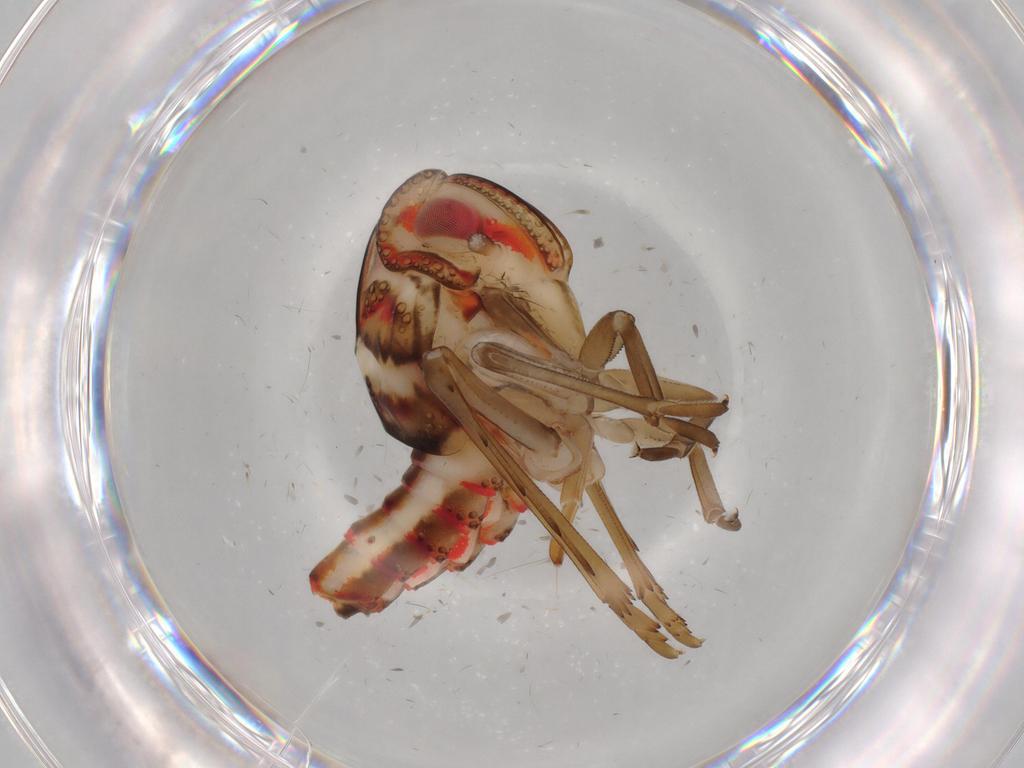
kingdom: Animalia
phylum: Arthropoda
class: Insecta
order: Hemiptera
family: Nogodinidae
